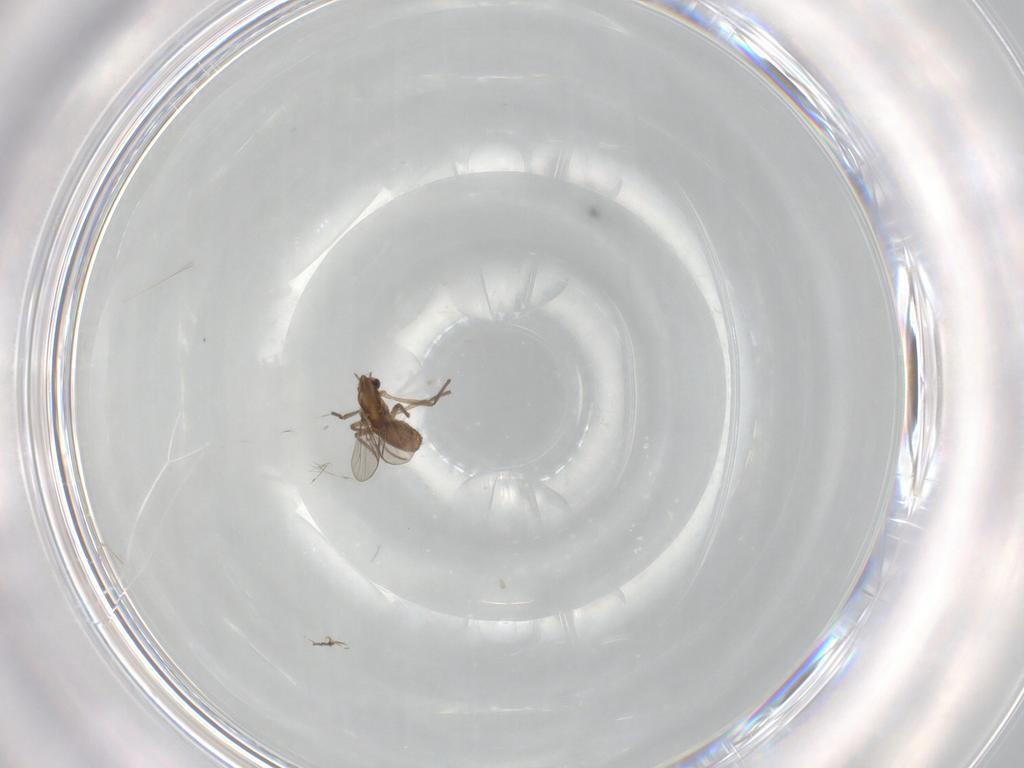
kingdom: Animalia
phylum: Arthropoda
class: Insecta
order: Diptera
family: Chironomidae
